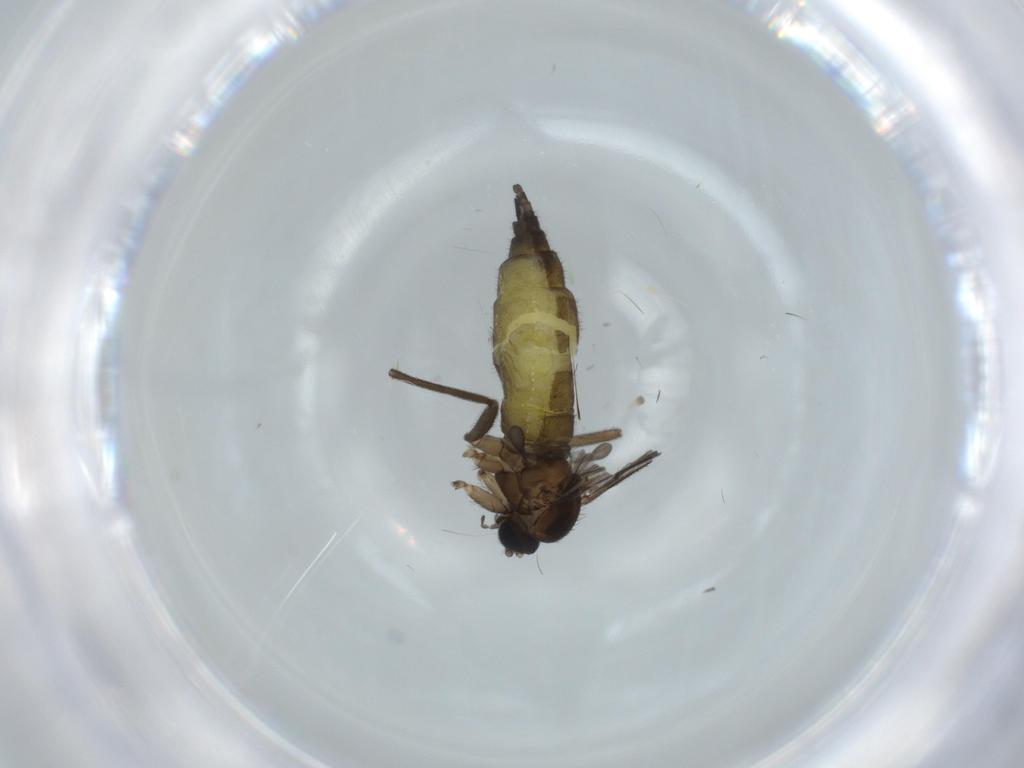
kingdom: Animalia
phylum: Arthropoda
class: Insecta
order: Diptera
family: Sciaridae
